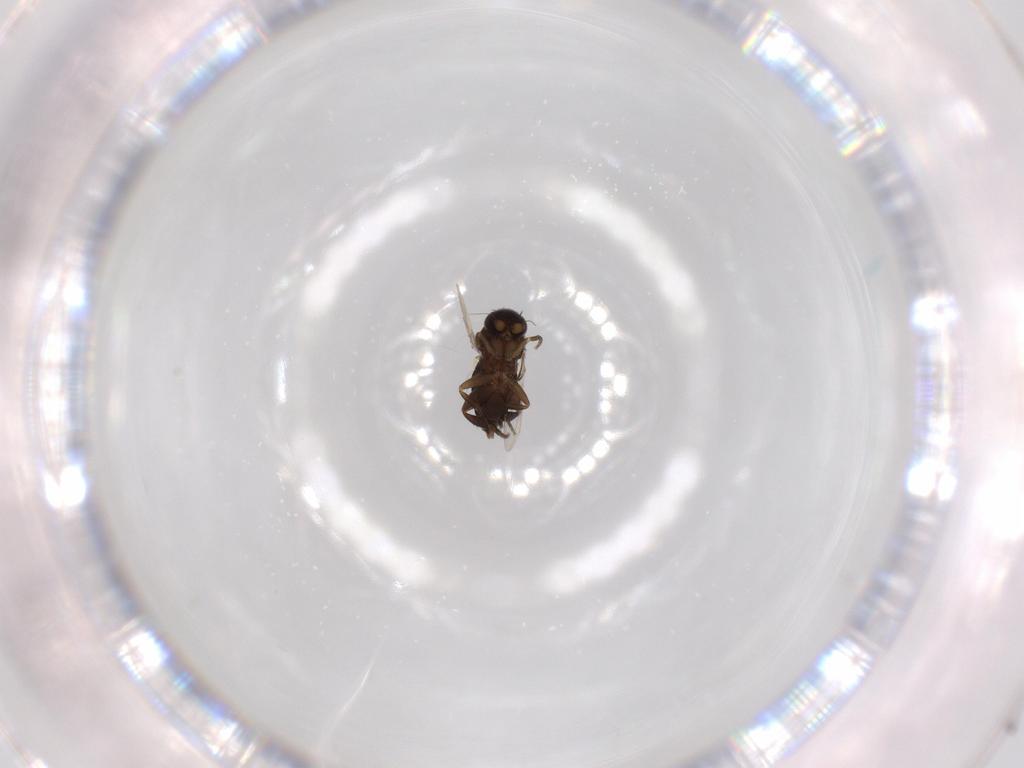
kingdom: Animalia
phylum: Arthropoda
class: Insecta
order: Diptera
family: Phoridae
